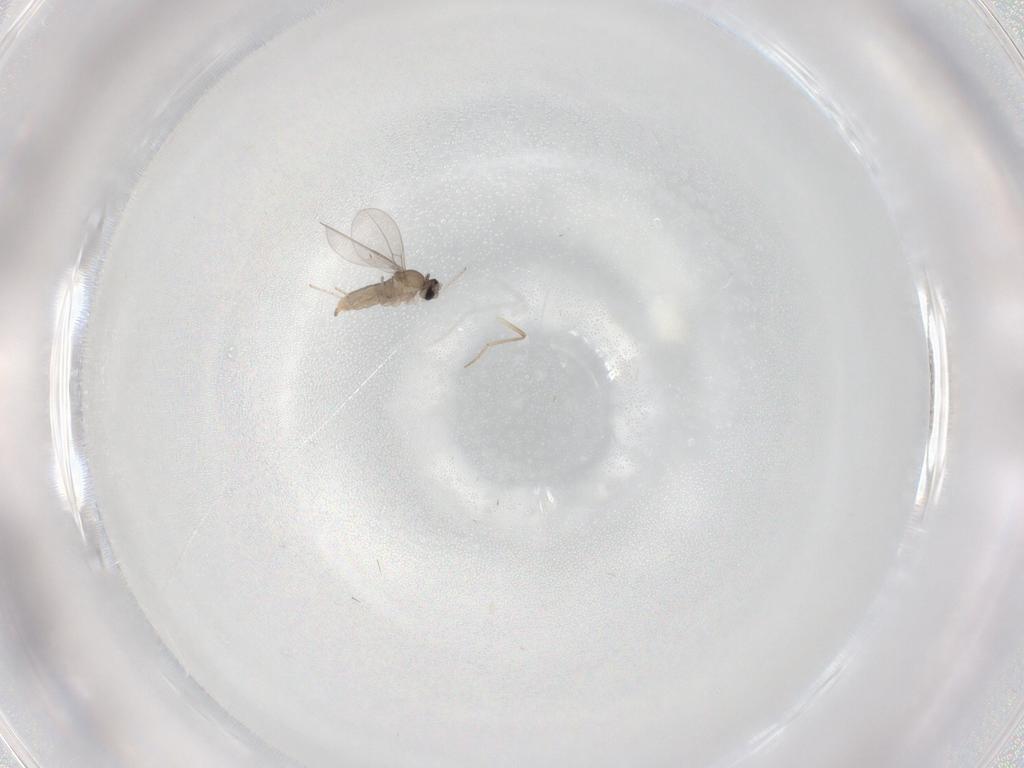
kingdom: Animalia
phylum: Arthropoda
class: Insecta
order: Diptera
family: Cecidomyiidae
